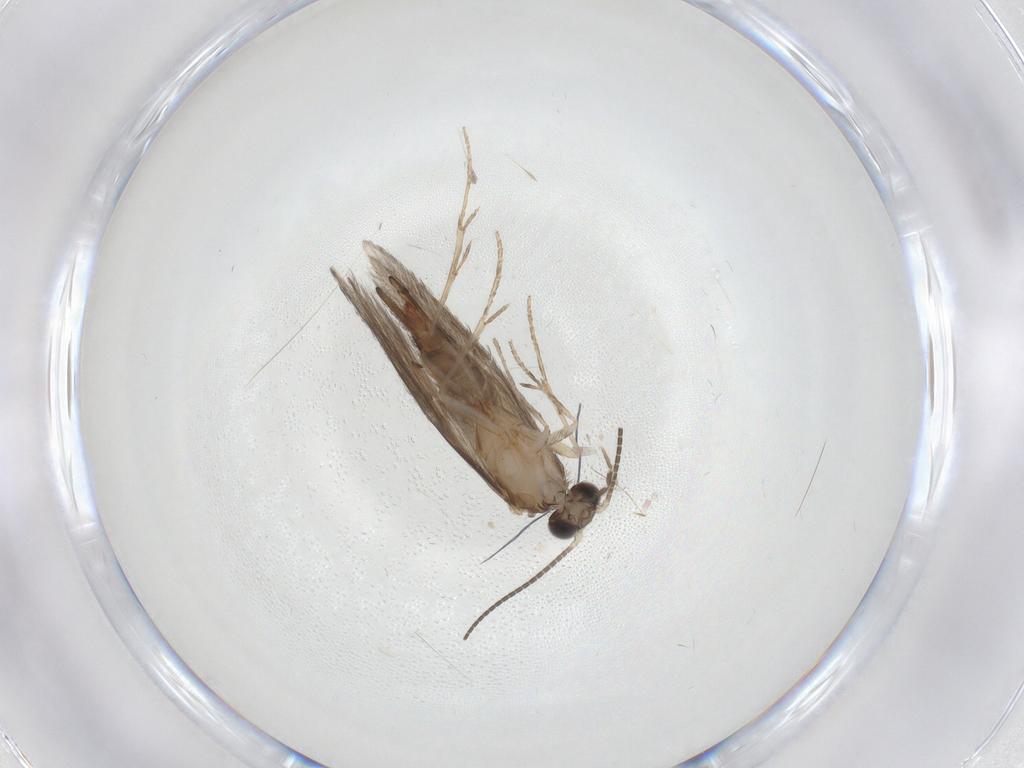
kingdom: Animalia
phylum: Arthropoda
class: Insecta
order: Trichoptera
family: Hydroptilidae
